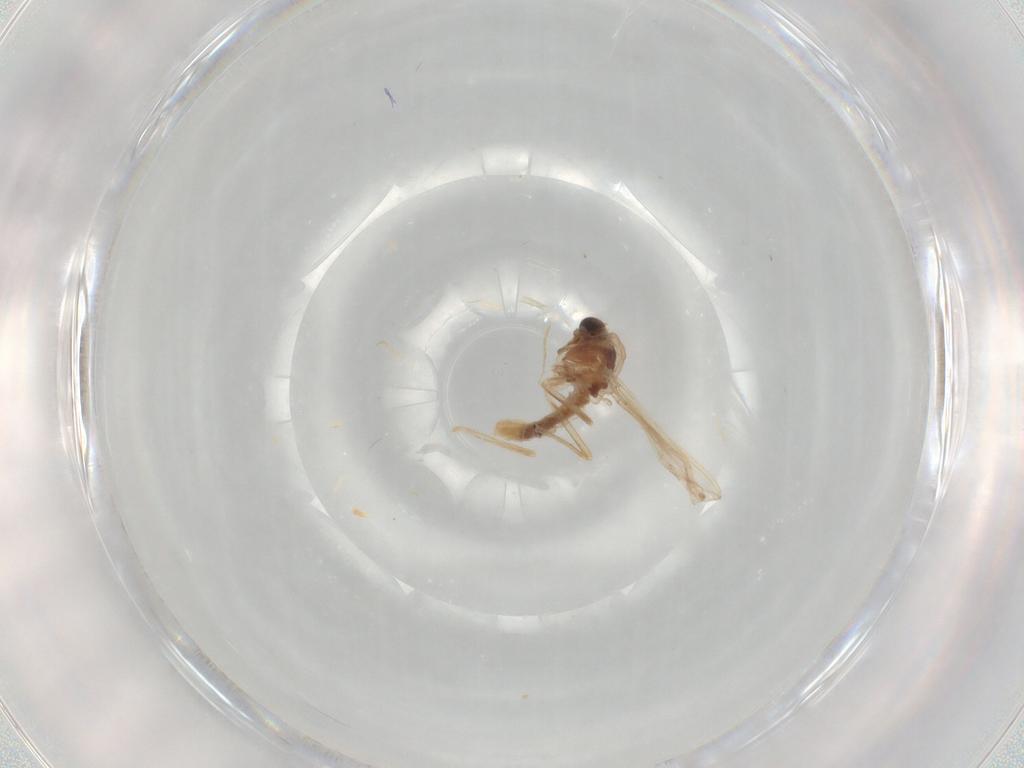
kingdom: Animalia
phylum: Arthropoda
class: Insecta
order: Diptera
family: Chironomidae
